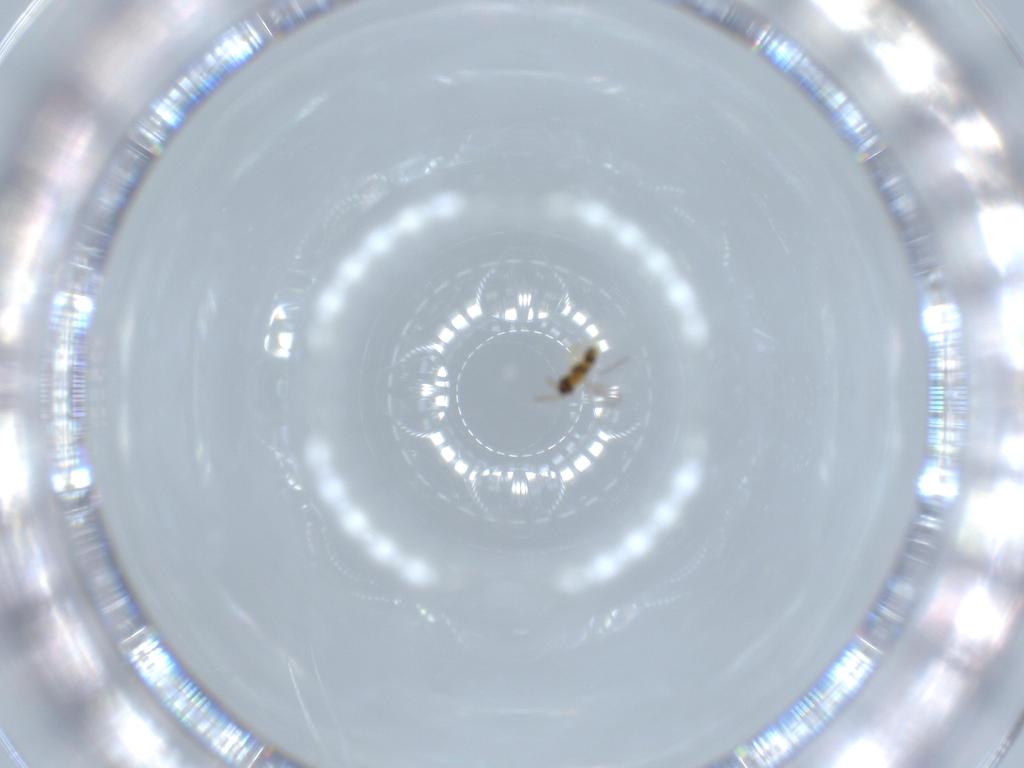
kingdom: Animalia
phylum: Arthropoda
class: Insecta
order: Hymenoptera
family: Aphelinidae
